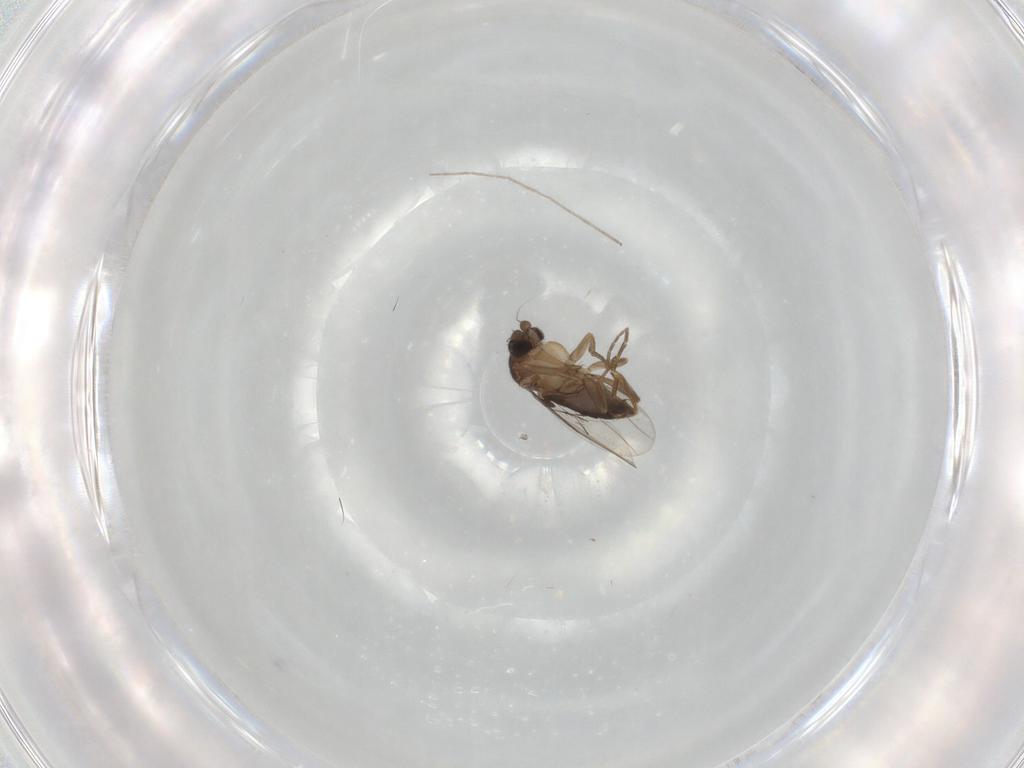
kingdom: Animalia
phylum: Arthropoda
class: Insecta
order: Diptera
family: Phoridae
